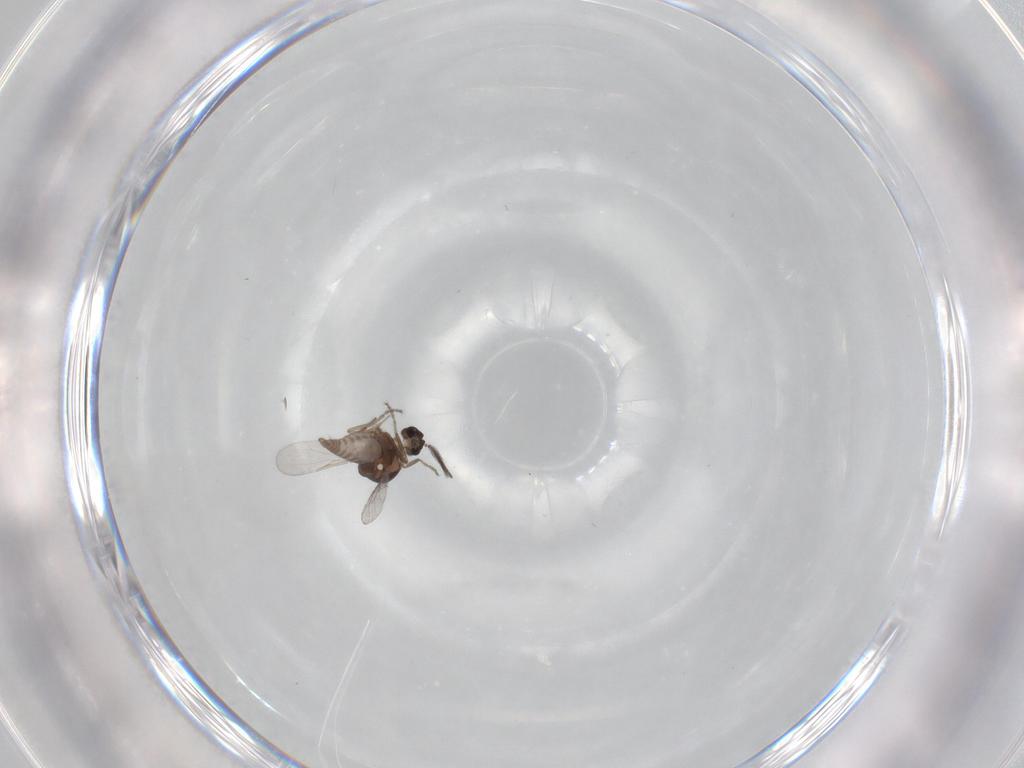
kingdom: Animalia
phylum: Arthropoda
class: Insecta
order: Diptera
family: Ceratopogonidae
